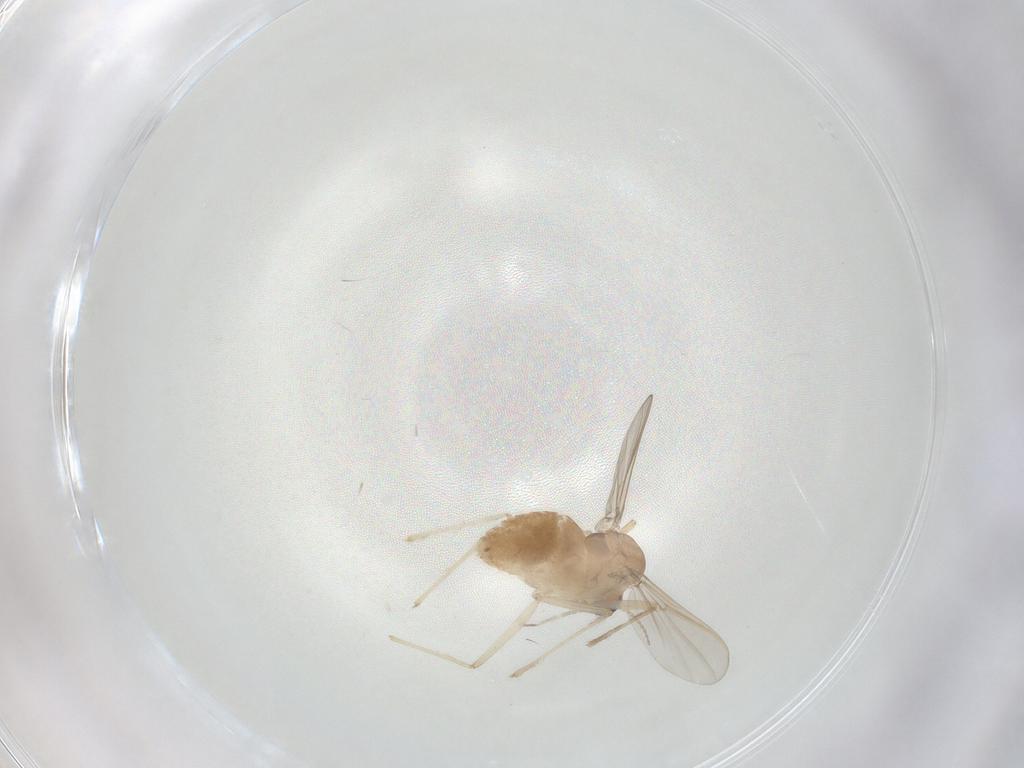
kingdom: Animalia
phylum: Arthropoda
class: Insecta
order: Diptera
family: Chironomidae
